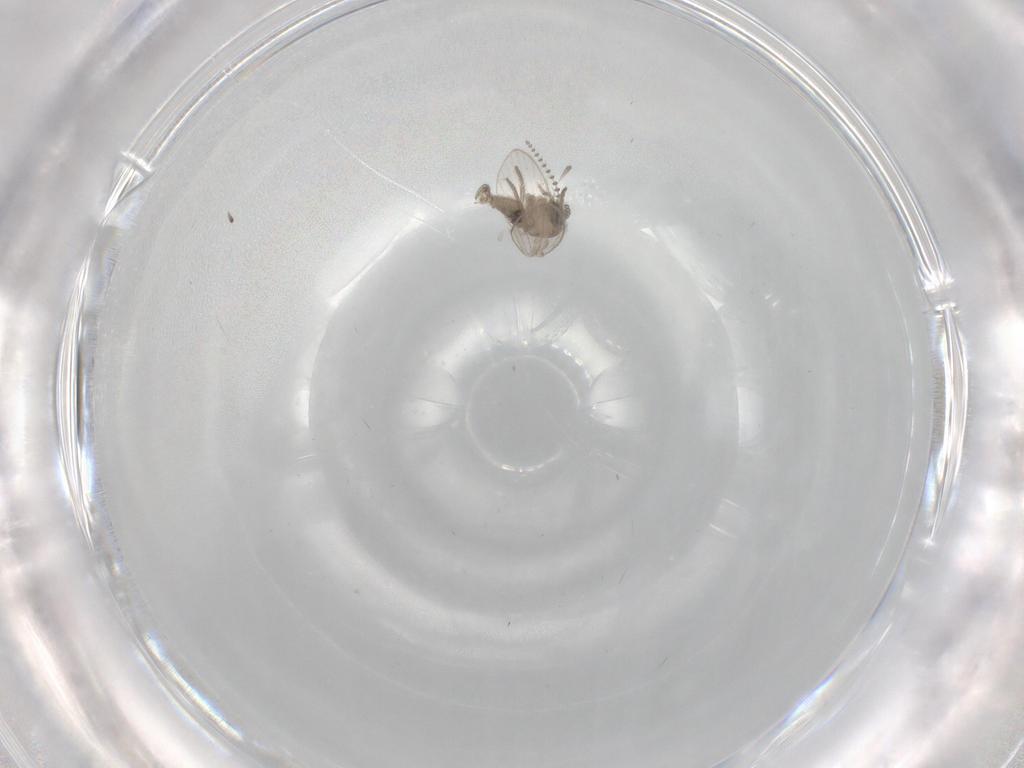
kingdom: Animalia
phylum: Arthropoda
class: Insecta
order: Diptera
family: Psychodidae
